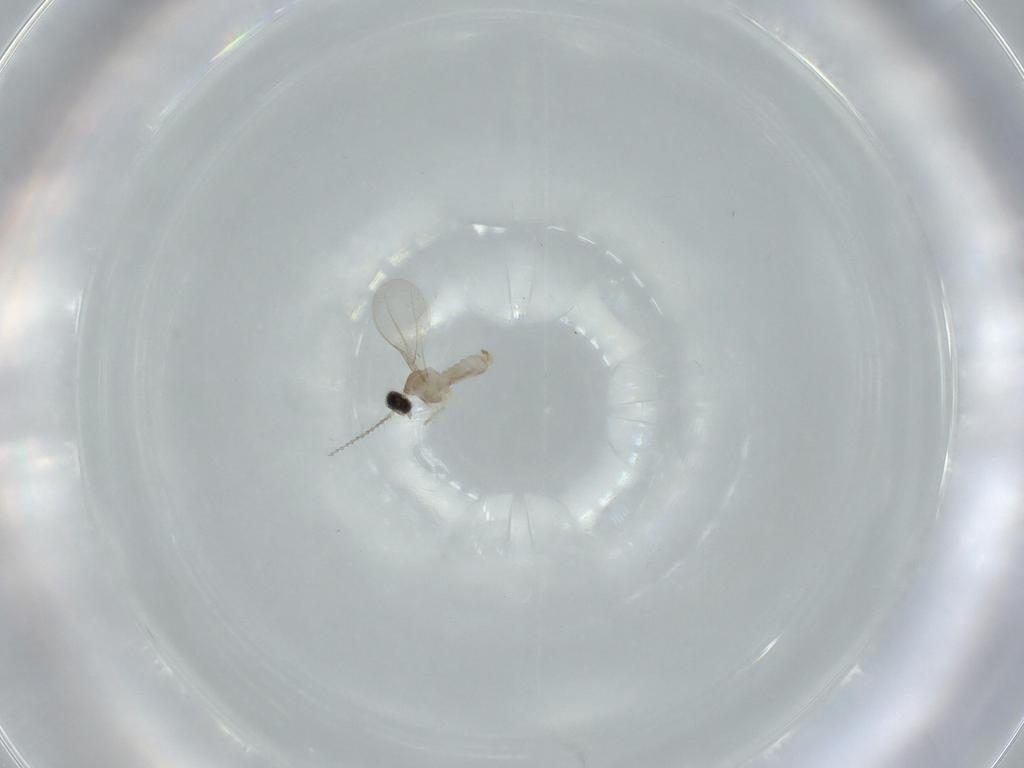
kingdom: Animalia
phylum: Arthropoda
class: Insecta
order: Diptera
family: Cecidomyiidae
